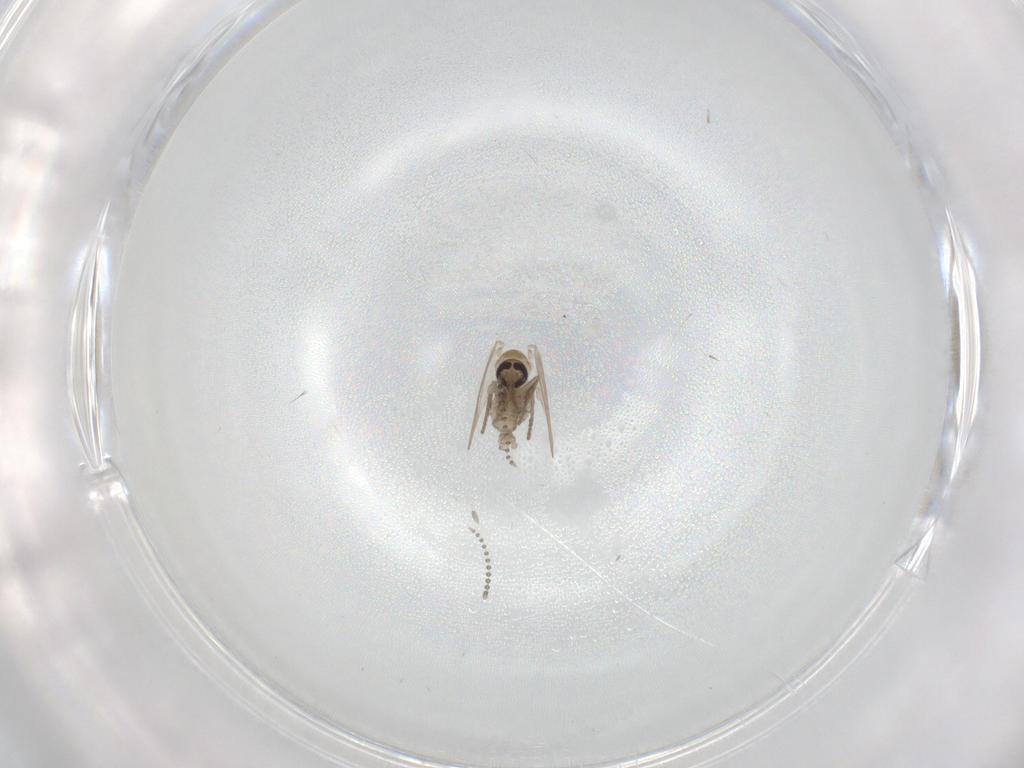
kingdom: Animalia
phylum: Arthropoda
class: Insecta
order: Diptera
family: Psychodidae
